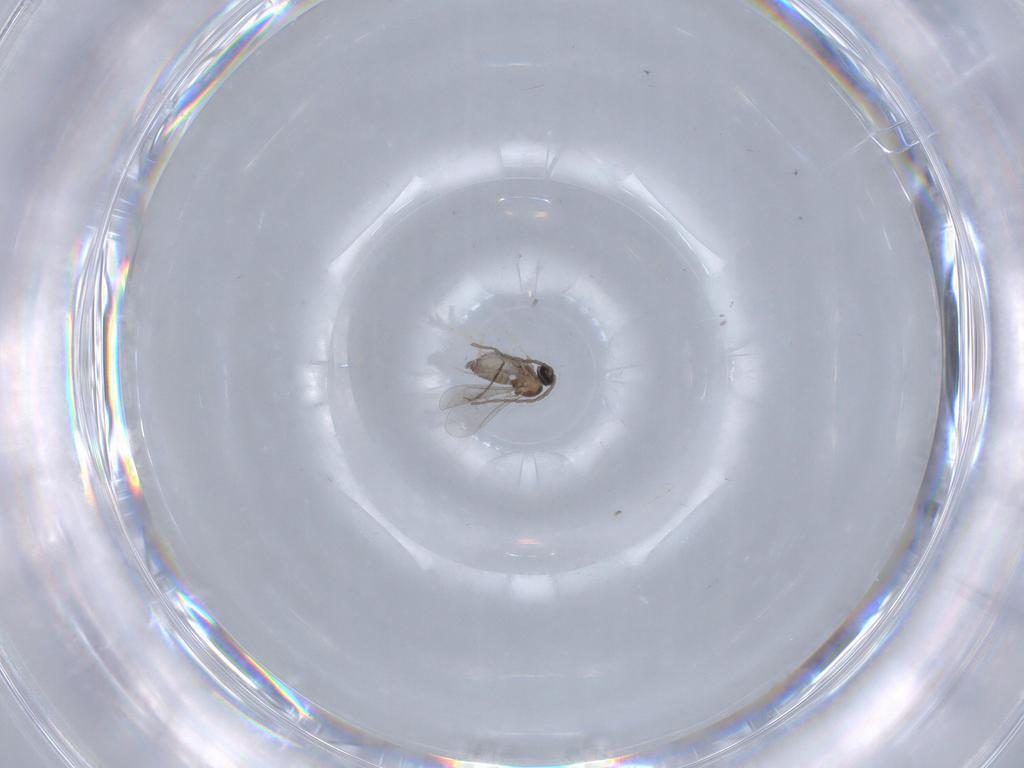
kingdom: Animalia
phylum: Arthropoda
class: Insecta
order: Diptera
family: Cecidomyiidae
